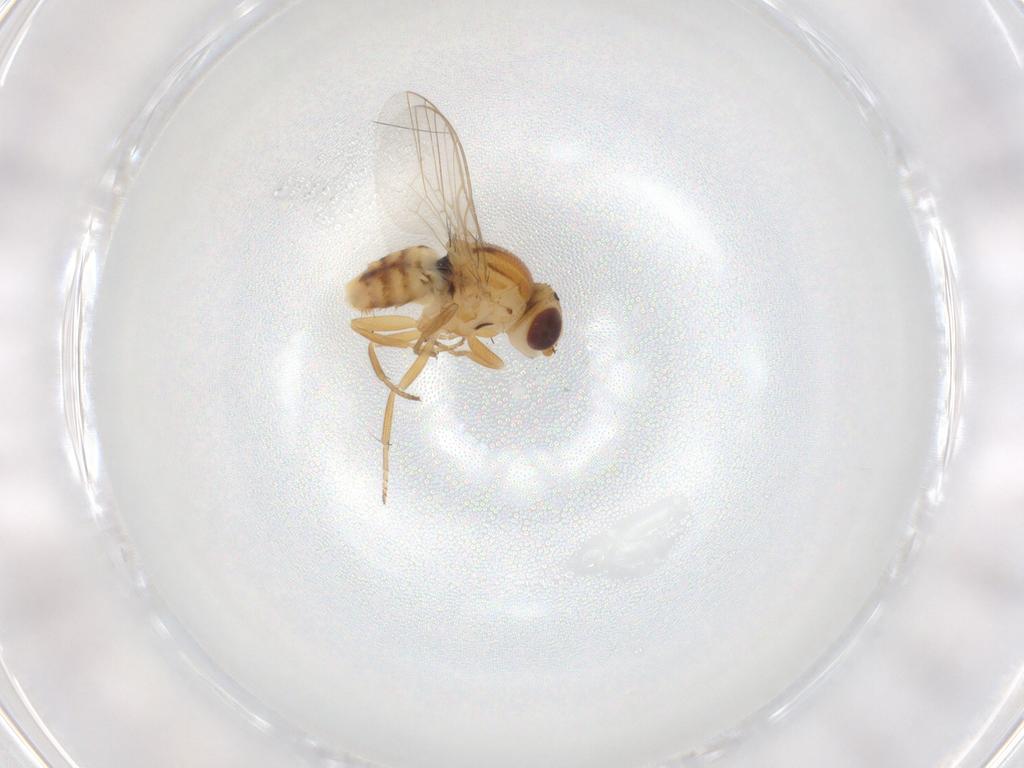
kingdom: Animalia
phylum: Arthropoda
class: Insecta
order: Diptera
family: Chloropidae
